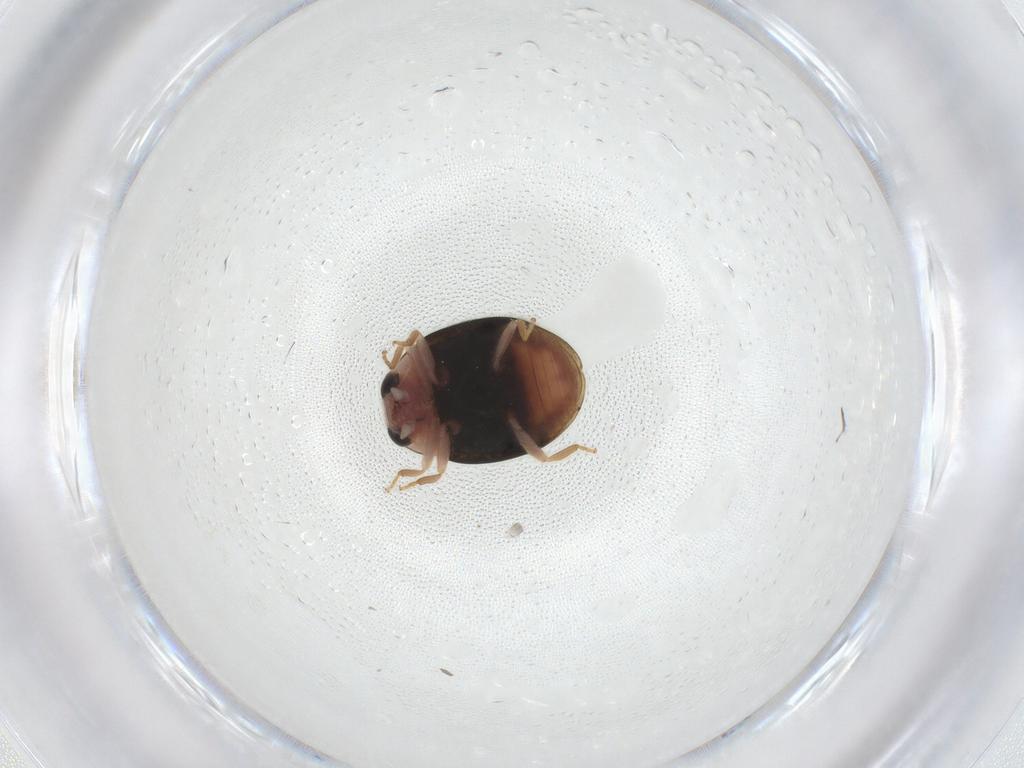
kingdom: Animalia
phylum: Arthropoda
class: Insecta
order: Coleoptera
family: Coccinellidae
